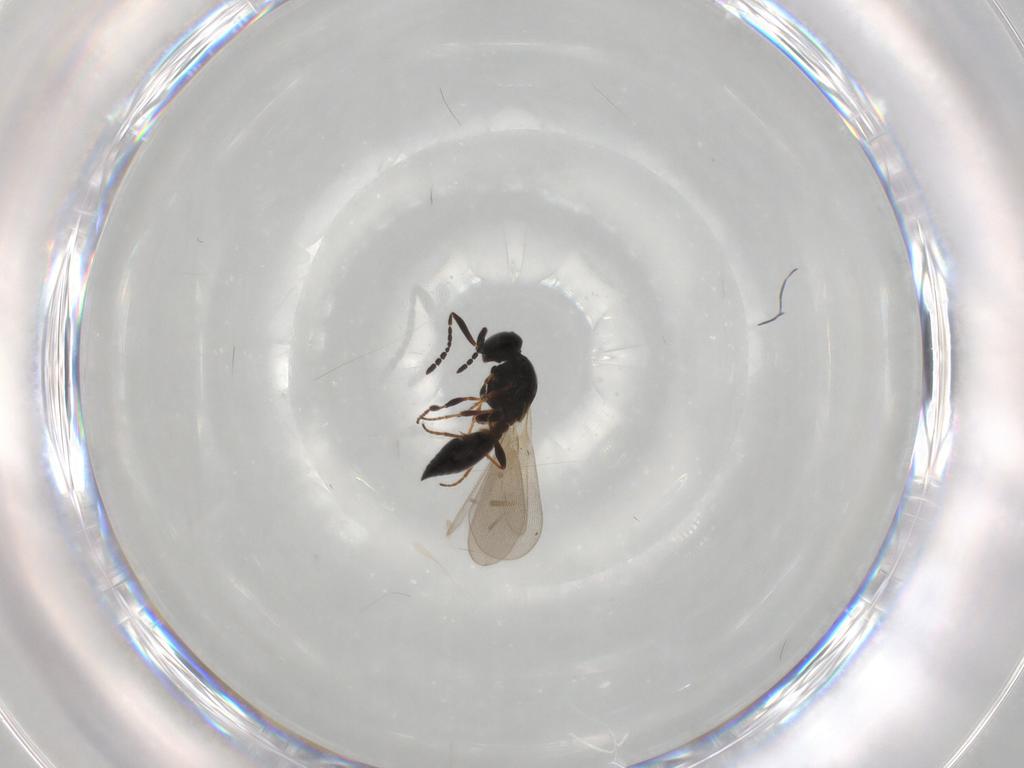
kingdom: Animalia
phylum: Arthropoda
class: Insecta
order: Hymenoptera
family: Platygastridae
